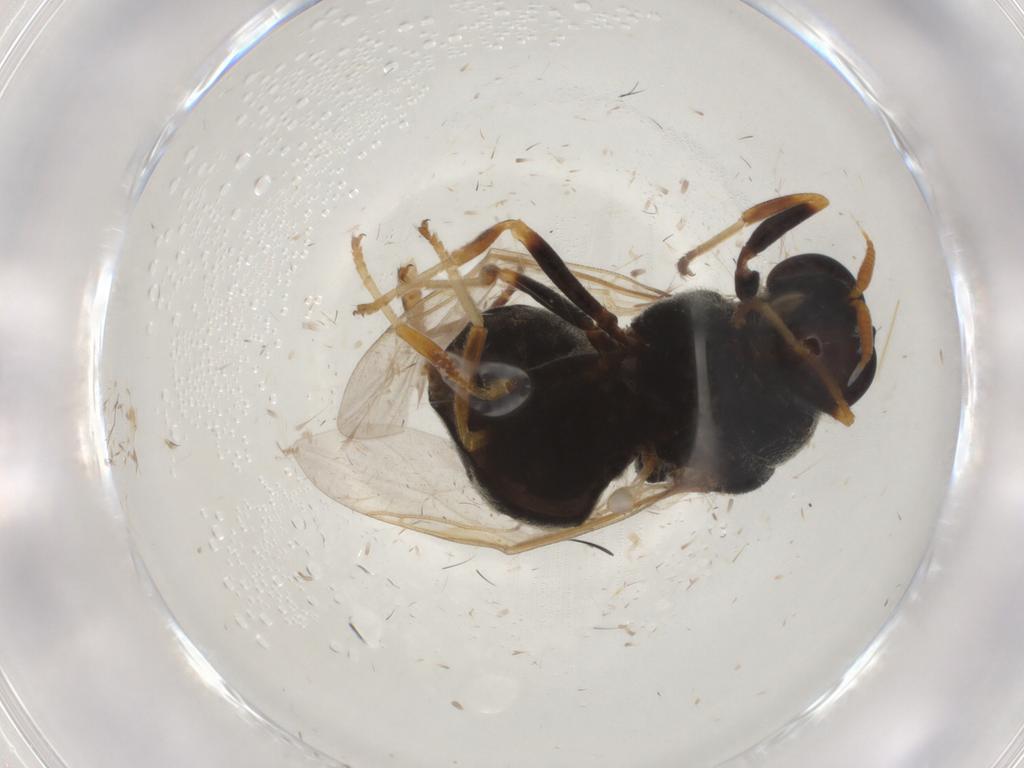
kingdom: Animalia
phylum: Arthropoda
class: Insecta
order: Diptera
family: Stratiomyidae
